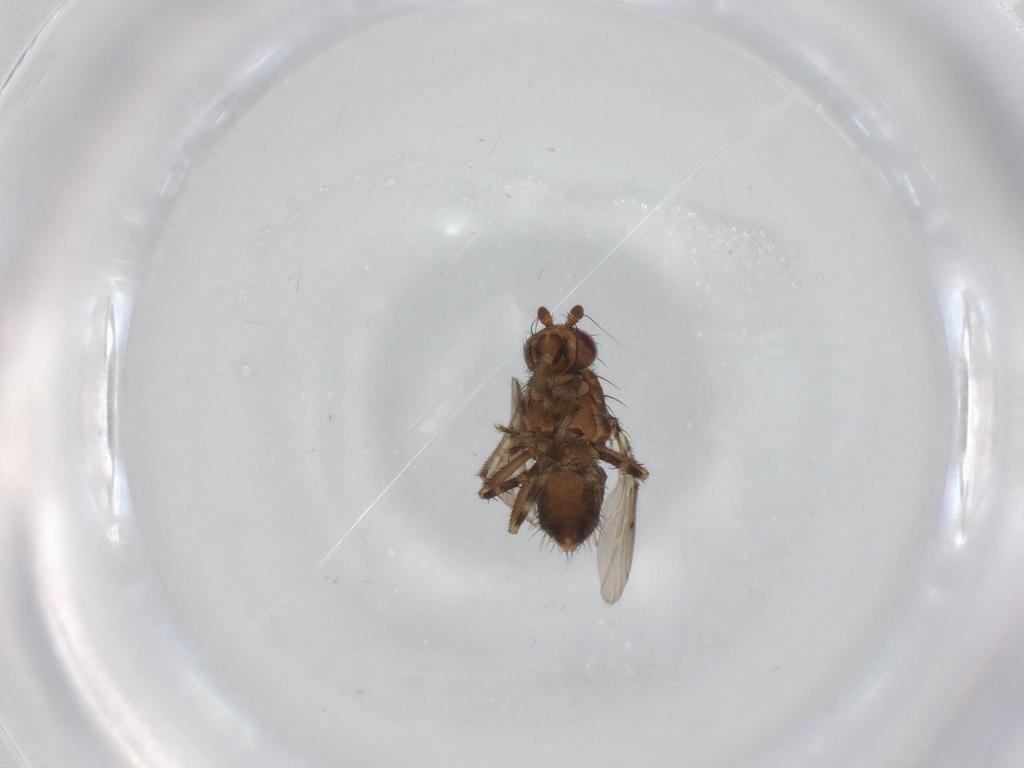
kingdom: Animalia
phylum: Arthropoda
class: Insecta
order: Diptera
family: Sphaeroceridae
